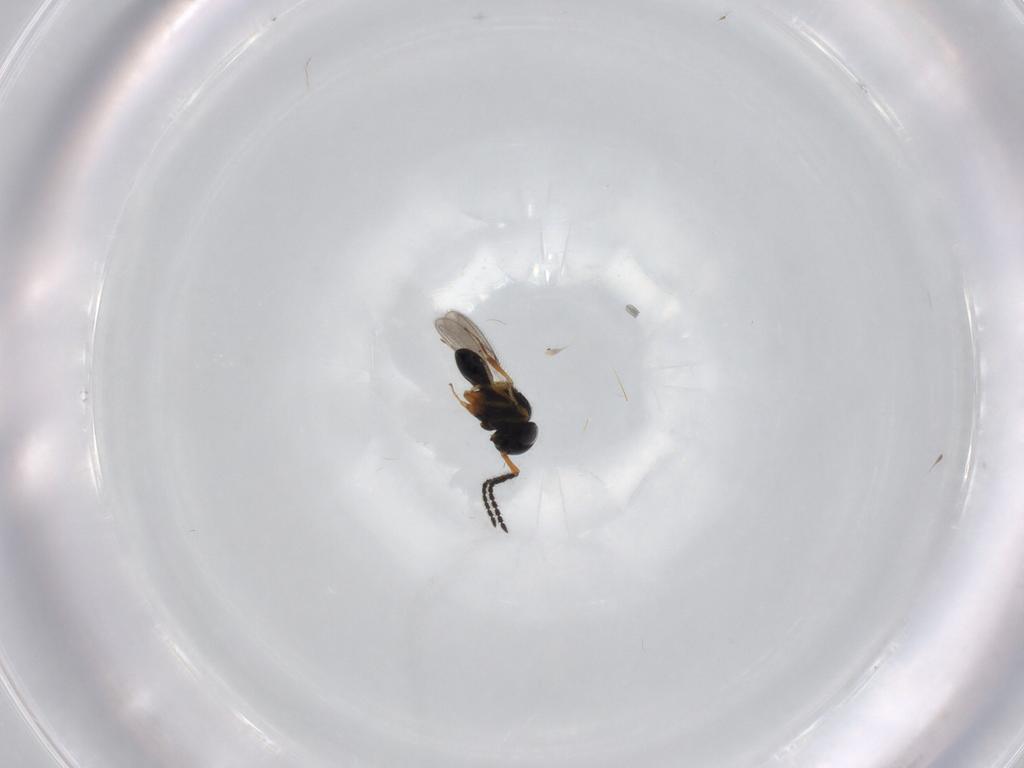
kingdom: Animalia
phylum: Arthropoda
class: Insecta
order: Hymenoptera
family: Scelionidae
